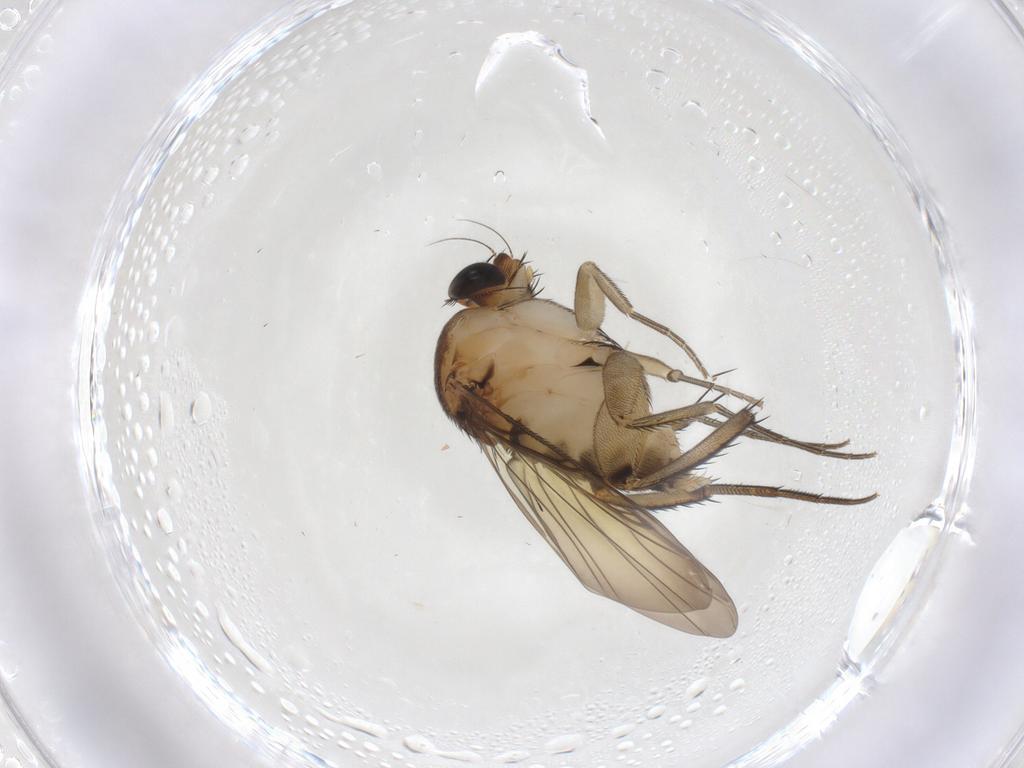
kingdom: Animalia
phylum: Arthropoda
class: Insecta
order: Diptera
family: Phoridae
